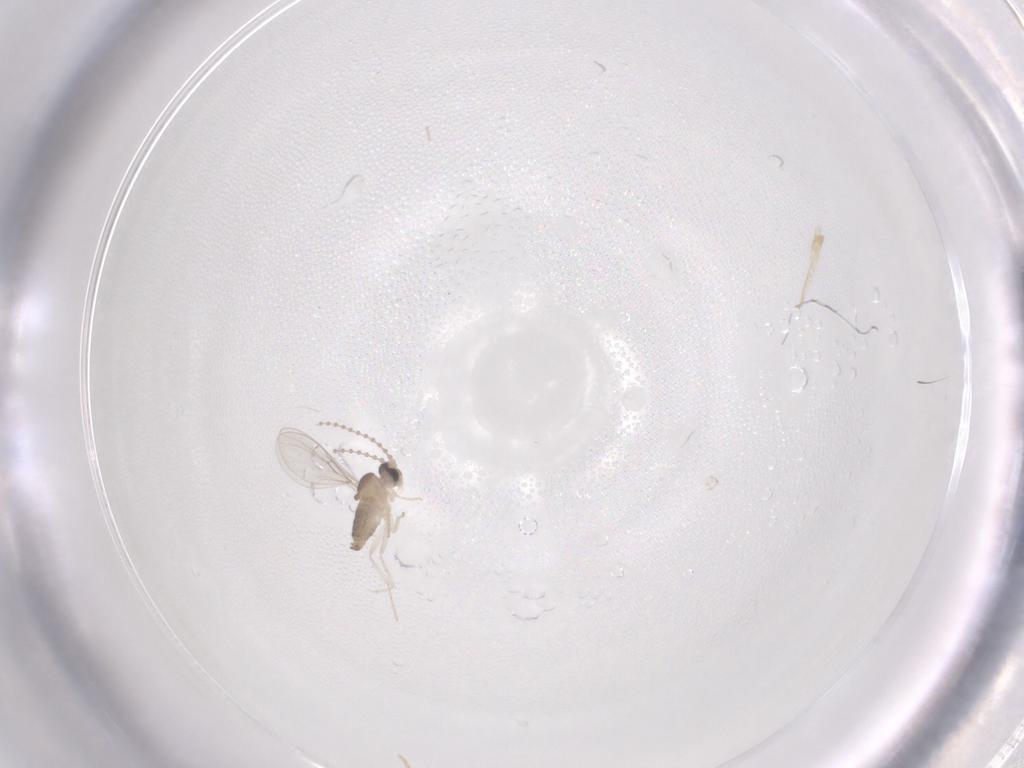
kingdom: Animalia
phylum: Arthropoda
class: Insecta
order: Diptera
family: Cecidomyiidae
